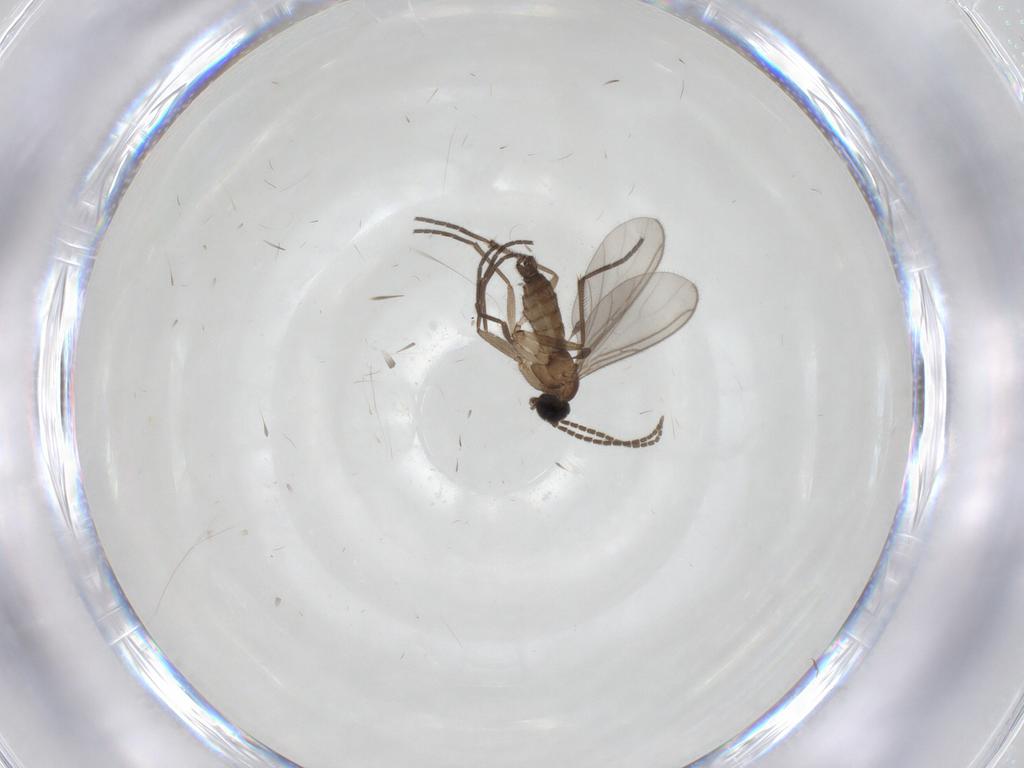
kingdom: Animalia
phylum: Arthropoda
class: Insecta
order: Diptera
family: Sciaridae
